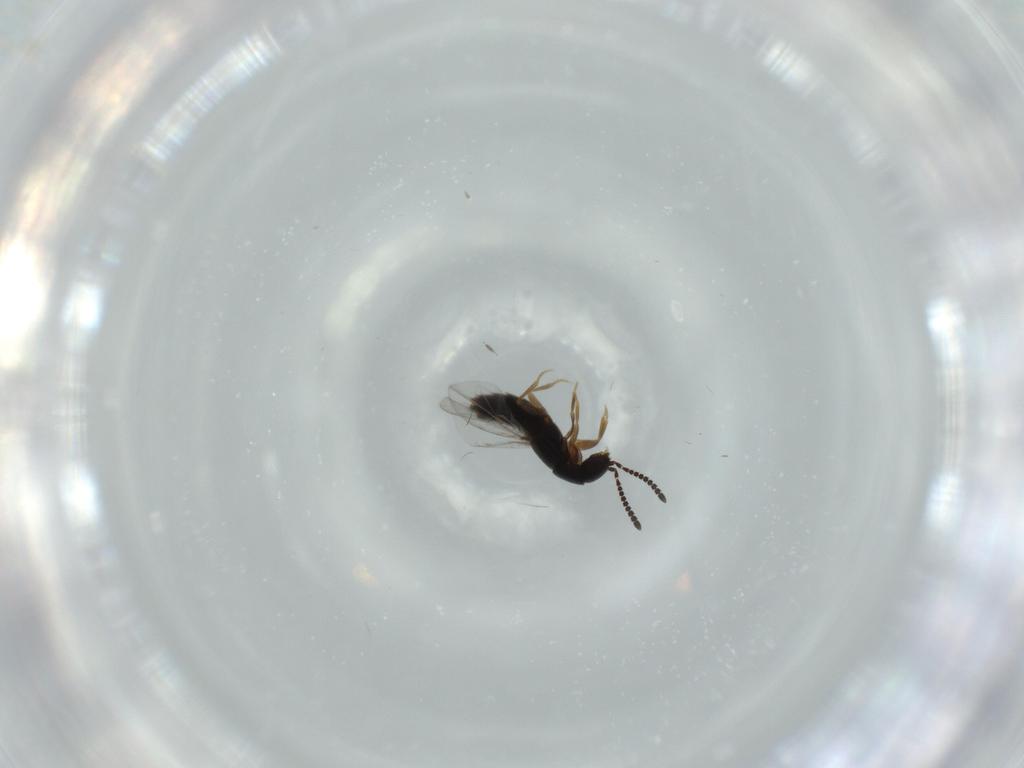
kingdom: Animalia
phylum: Arthropoda
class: Insecta
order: Coleoptera
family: Staphylinidae
